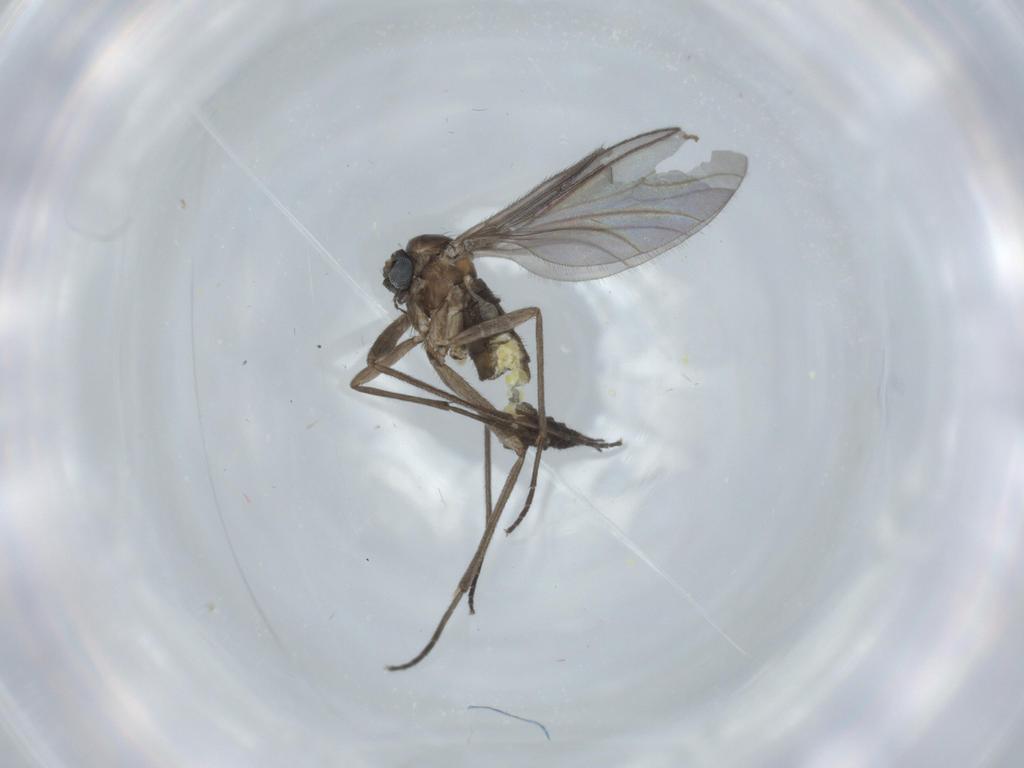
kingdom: Animalia
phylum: Arthropoda
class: Insecta
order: Diptera
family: Sciaridae
